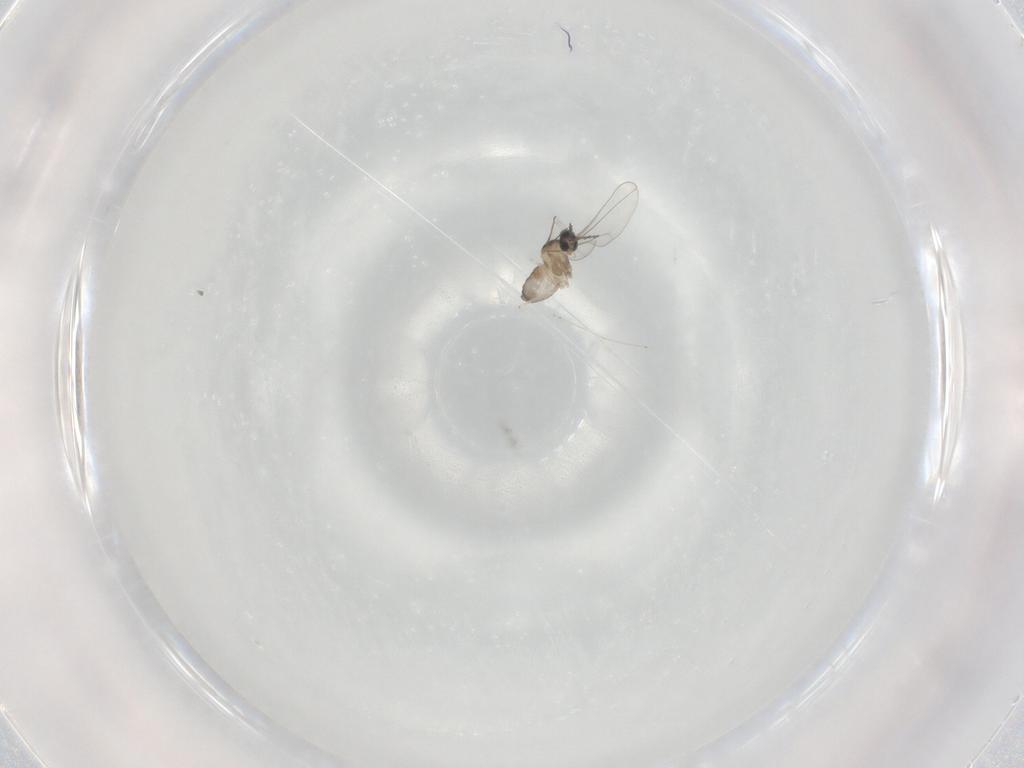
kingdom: Animalia
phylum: Arthropoda
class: Insecta
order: Diptera
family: Cecidomyiidae
